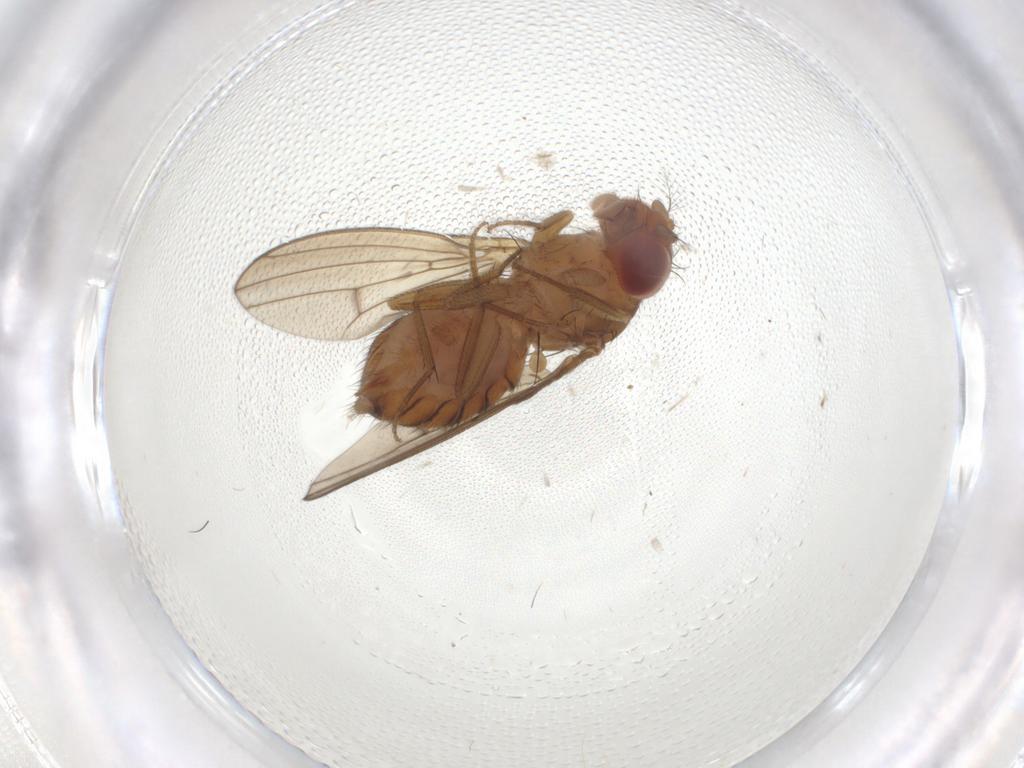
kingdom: Animalia
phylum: Arthropoda
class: Insecta
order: Diptera
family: Drosophilidae
